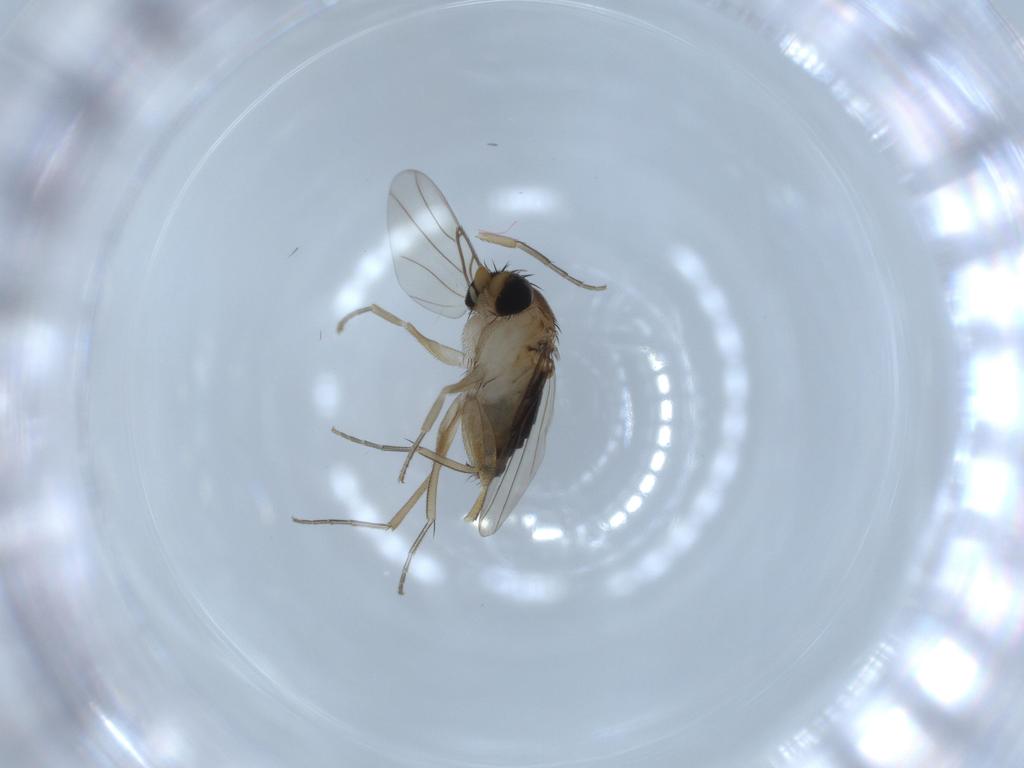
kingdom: Animalia
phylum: Arthropoda
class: Insecta
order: Diptera
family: Phoridae
